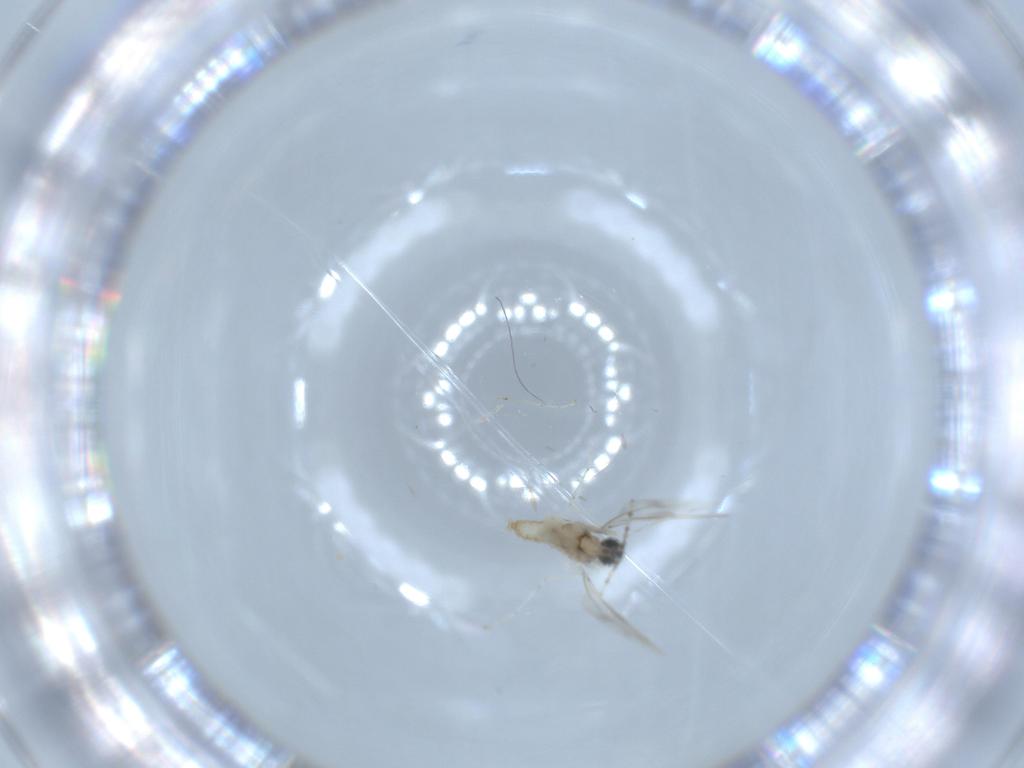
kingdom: Animalia
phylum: Arthropoda
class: Insecta
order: Diptera
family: Cecidomyiidae
